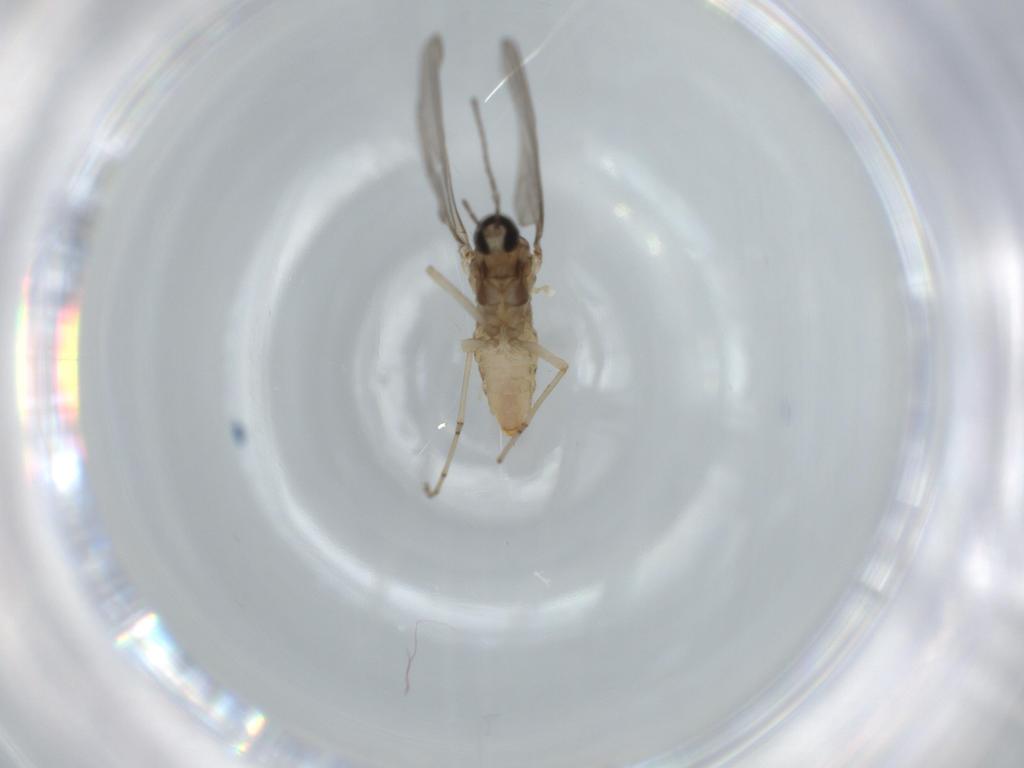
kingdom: Animalia
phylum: Arthropoda
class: Insecta
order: Diptera
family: Cecidomyiidae
